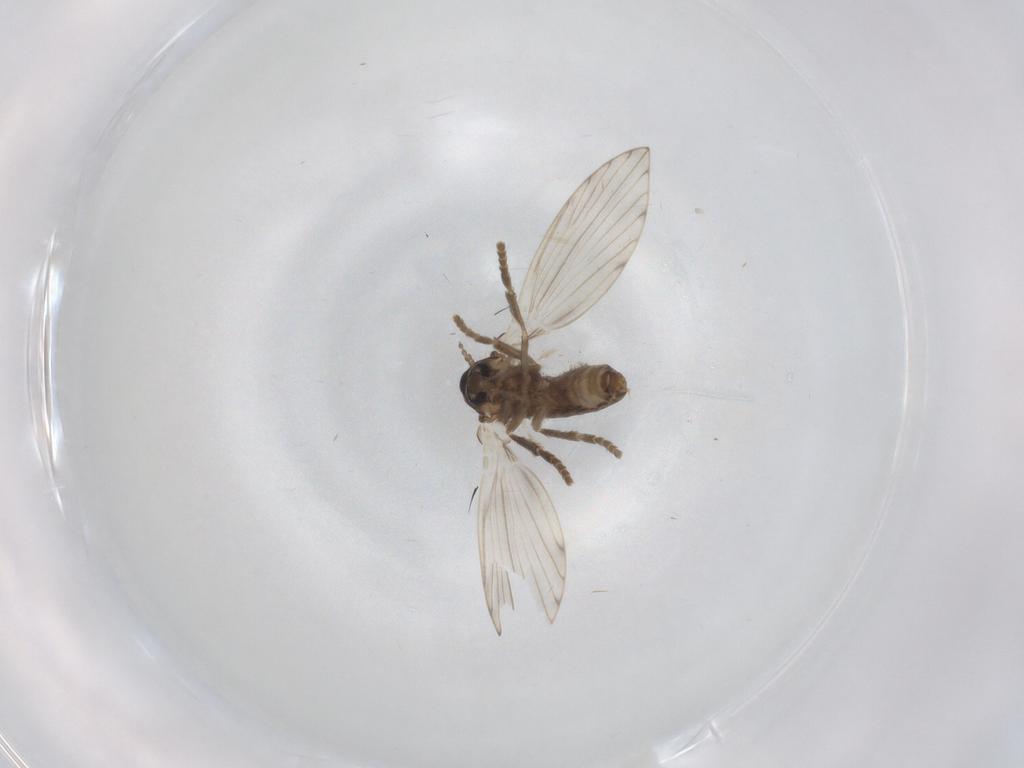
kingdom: Animalia
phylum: Arthropoda
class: Insecta
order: Diptera
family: Psychodidae
